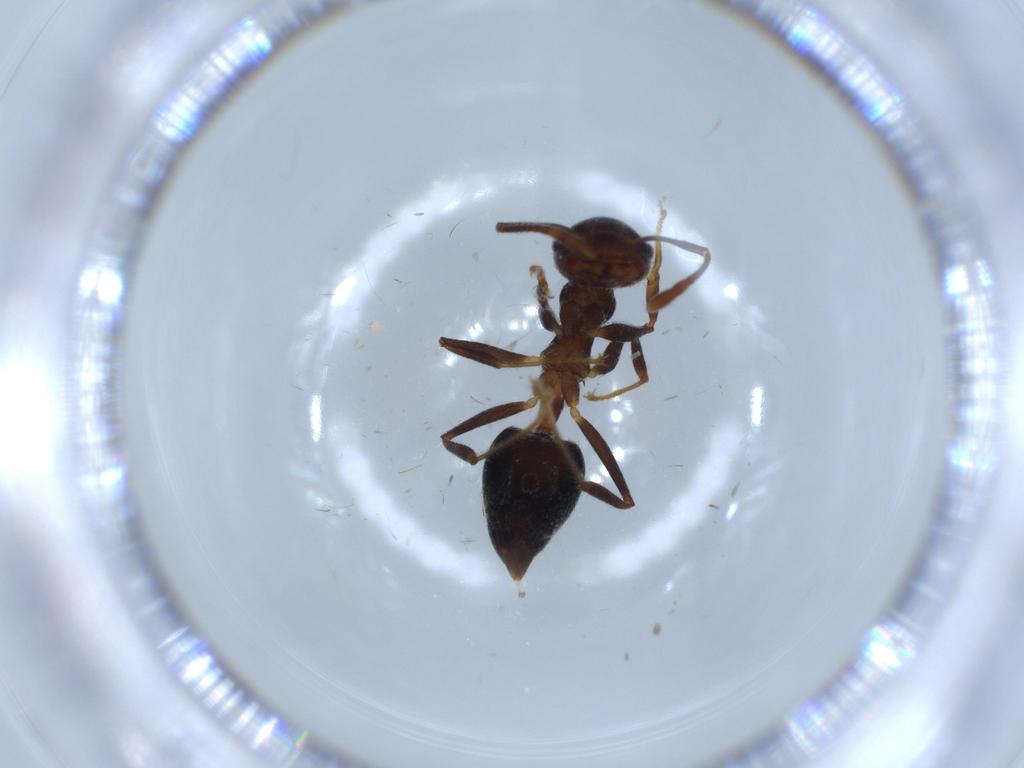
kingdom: Animalia
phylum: Arthropoda
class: Insecta
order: Hymenoptera
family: Formicidae
